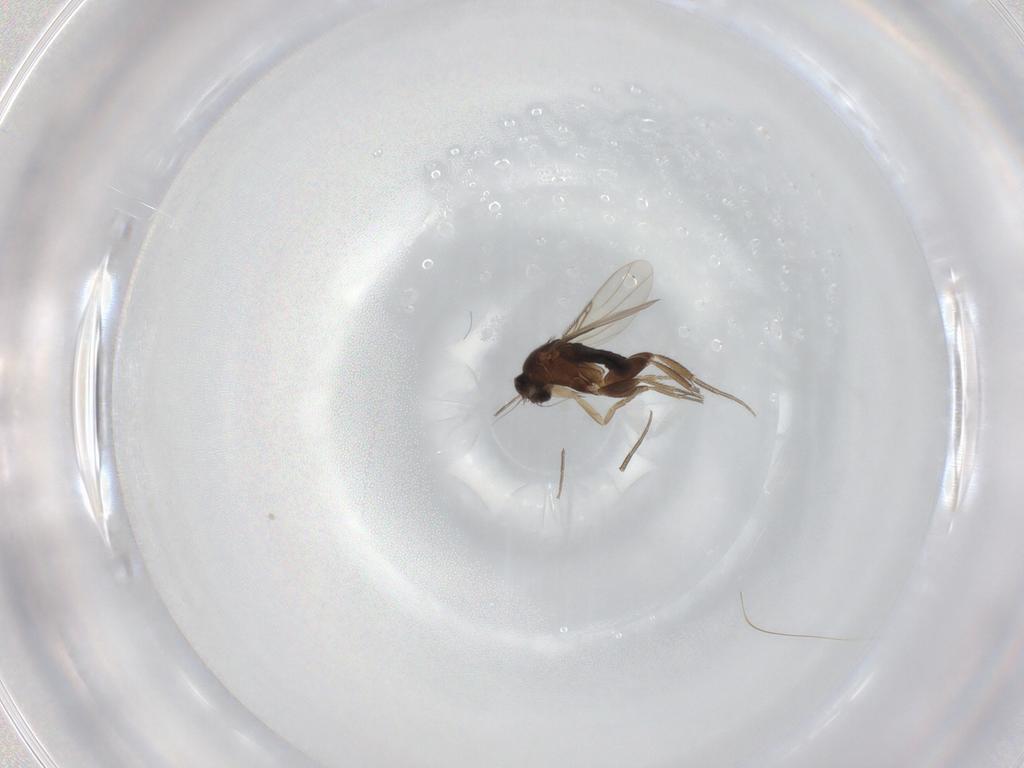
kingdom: Animalia
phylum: Arthropoda
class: Insecta
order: Diptera
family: Phoridae
